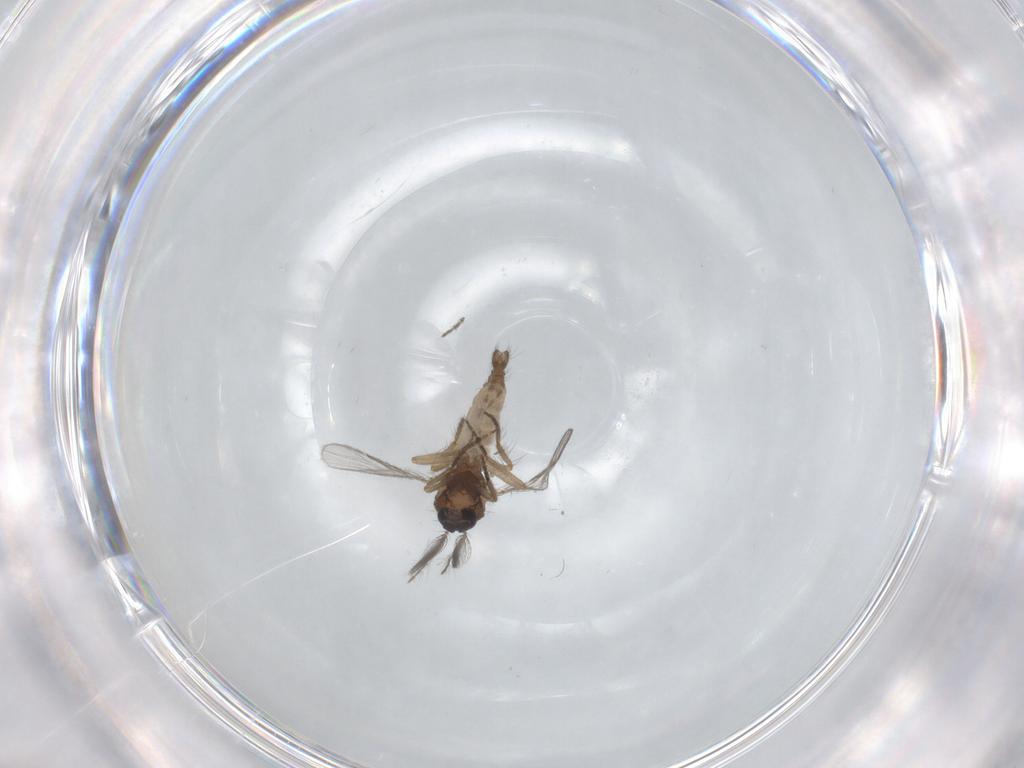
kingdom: Animalia
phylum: Arthropoda
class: Insecta
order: Diptera
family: Ceratopogonidae
